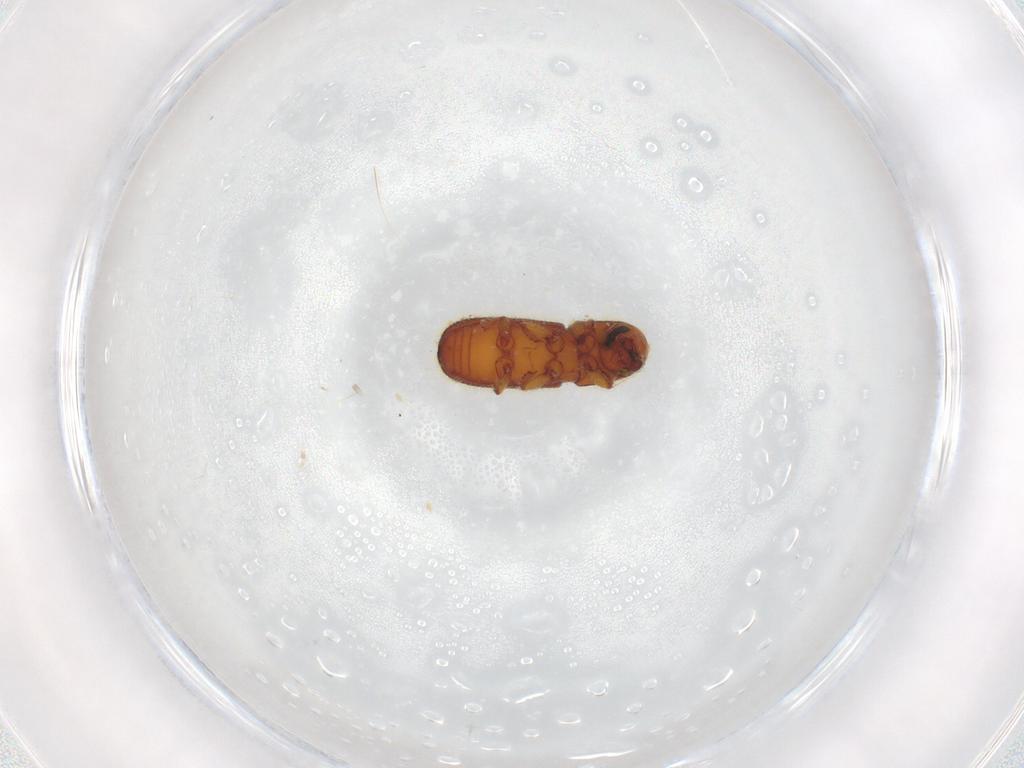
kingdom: Animalia
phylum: Arthropoda
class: Insecta
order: Coleoptera
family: Curculionidae
